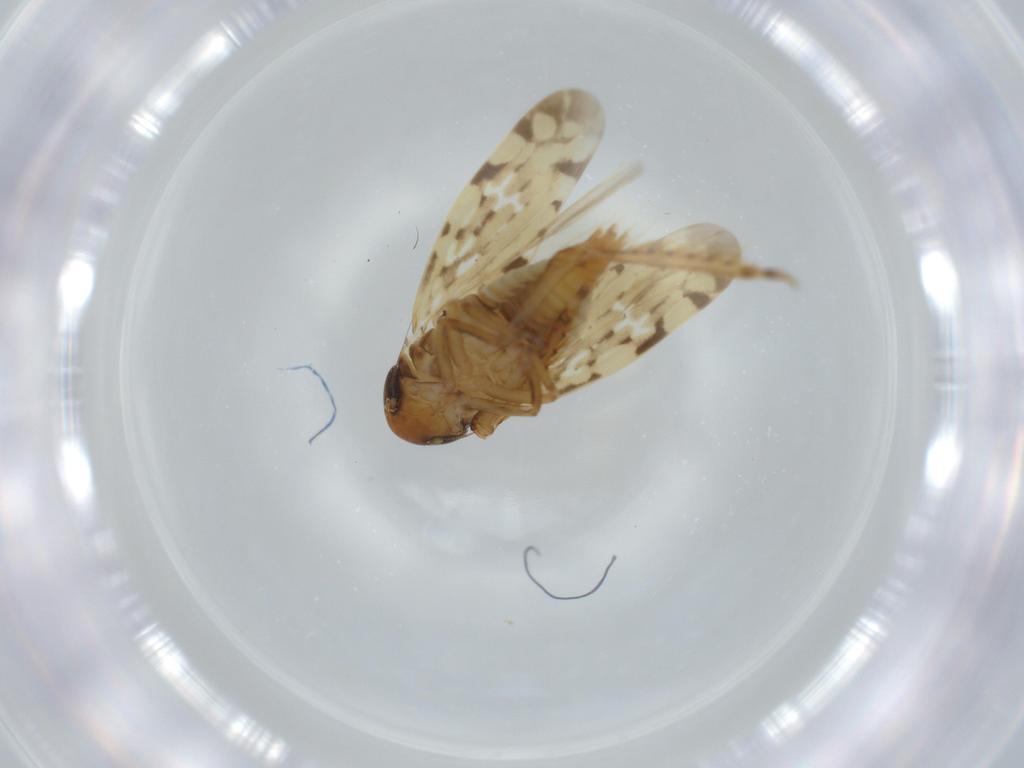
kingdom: Animalia
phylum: Arthropoda
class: Insecta
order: Hemiptera
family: Cicadellidae
